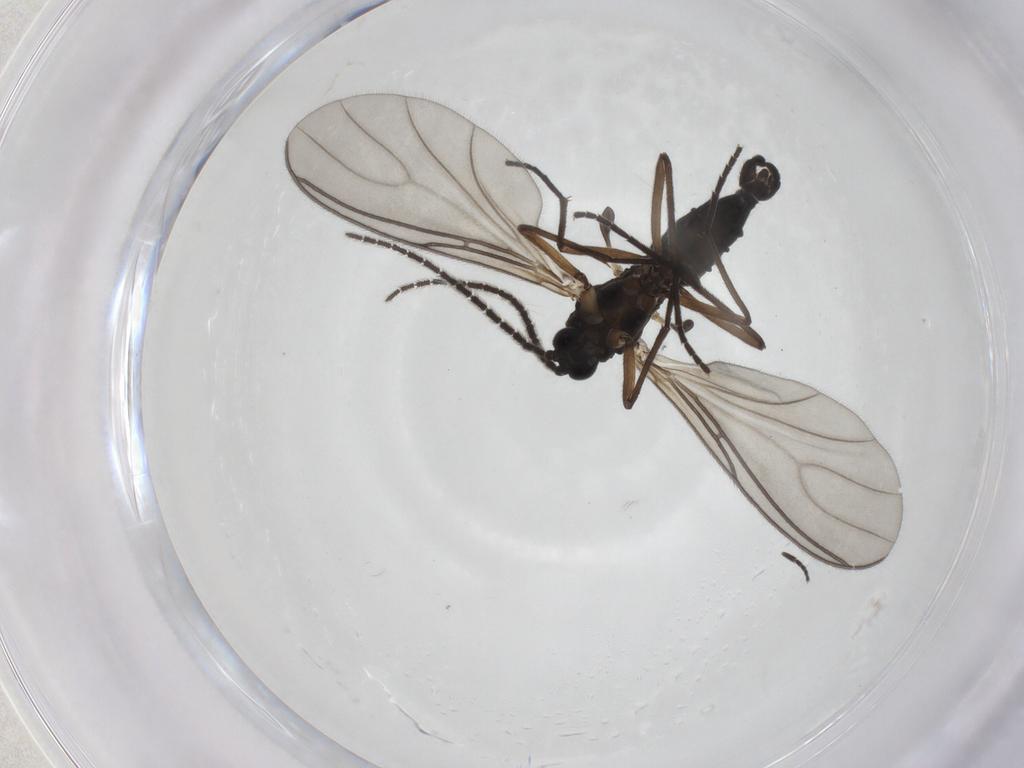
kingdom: Animalia
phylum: Arthropoda
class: Insecta
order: Diptera
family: Sciaridae
